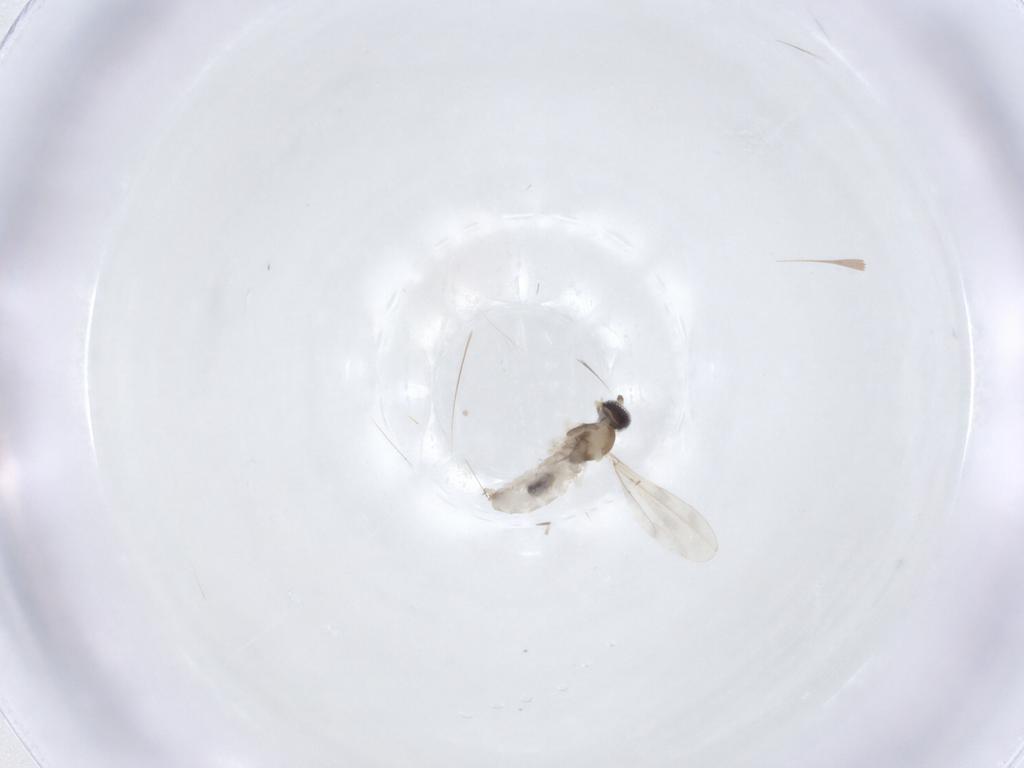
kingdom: Animalia
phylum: Arthropoda
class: Insecta
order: Diptera
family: Cecidomyiidae
